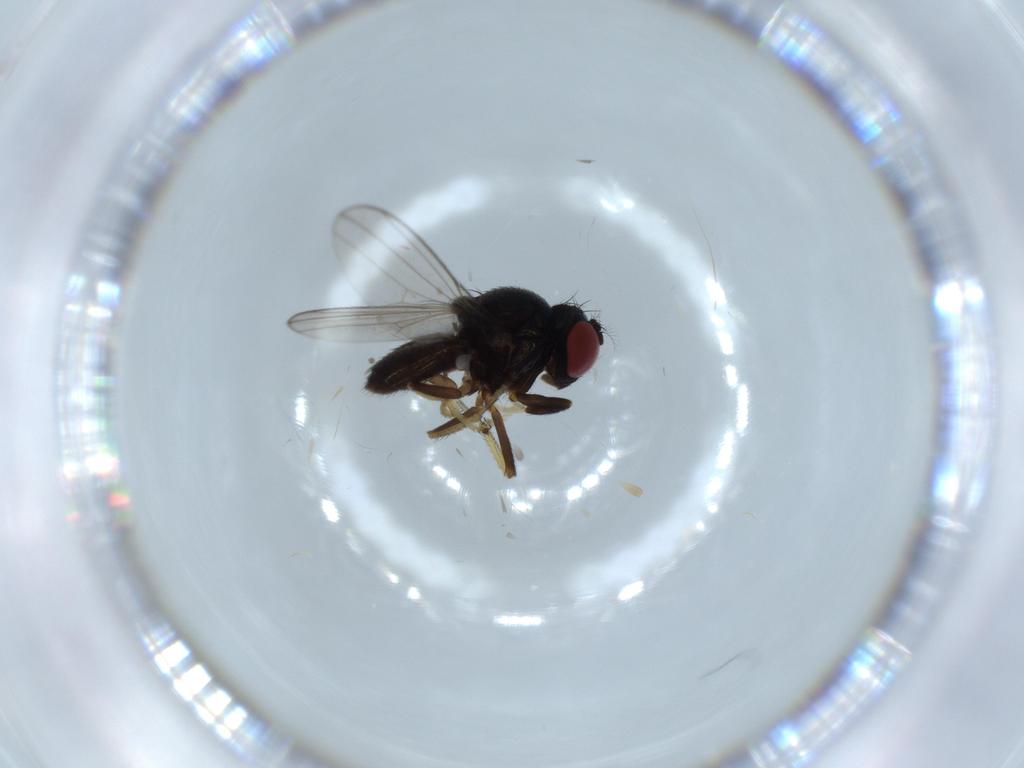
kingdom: Animalia
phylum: Arthropoda
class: Insecta
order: Diptera
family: Ephydridae
